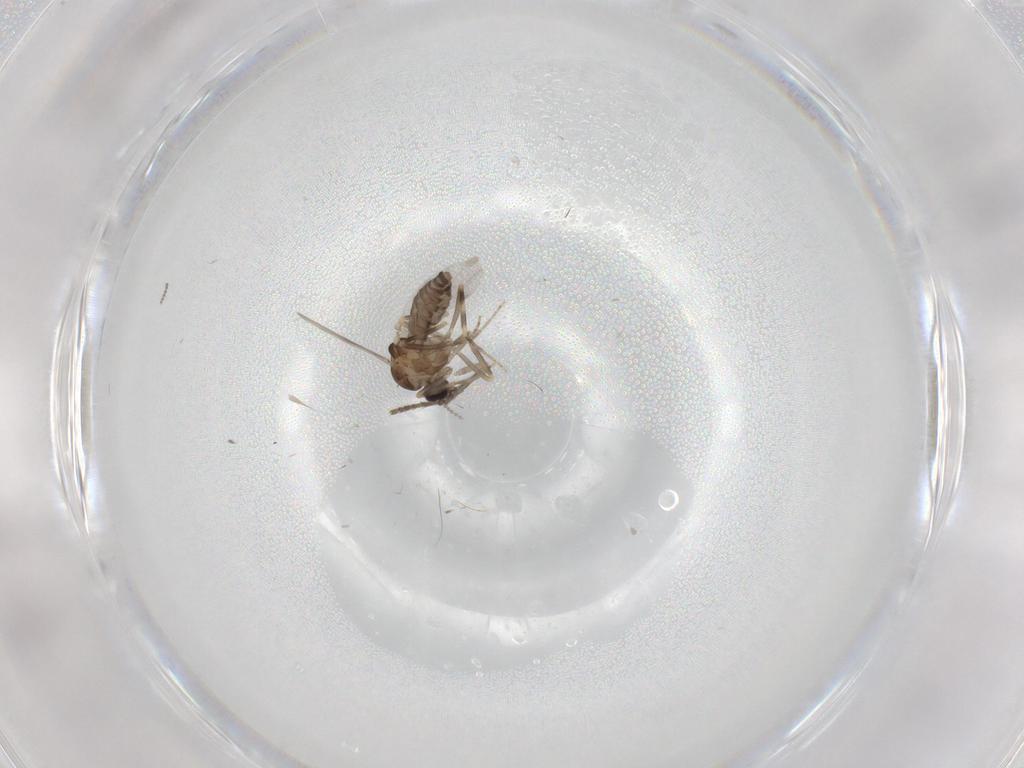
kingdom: Animalia
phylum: Arthropoda
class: Insecta
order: Diptera
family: Ceratopogonidae
